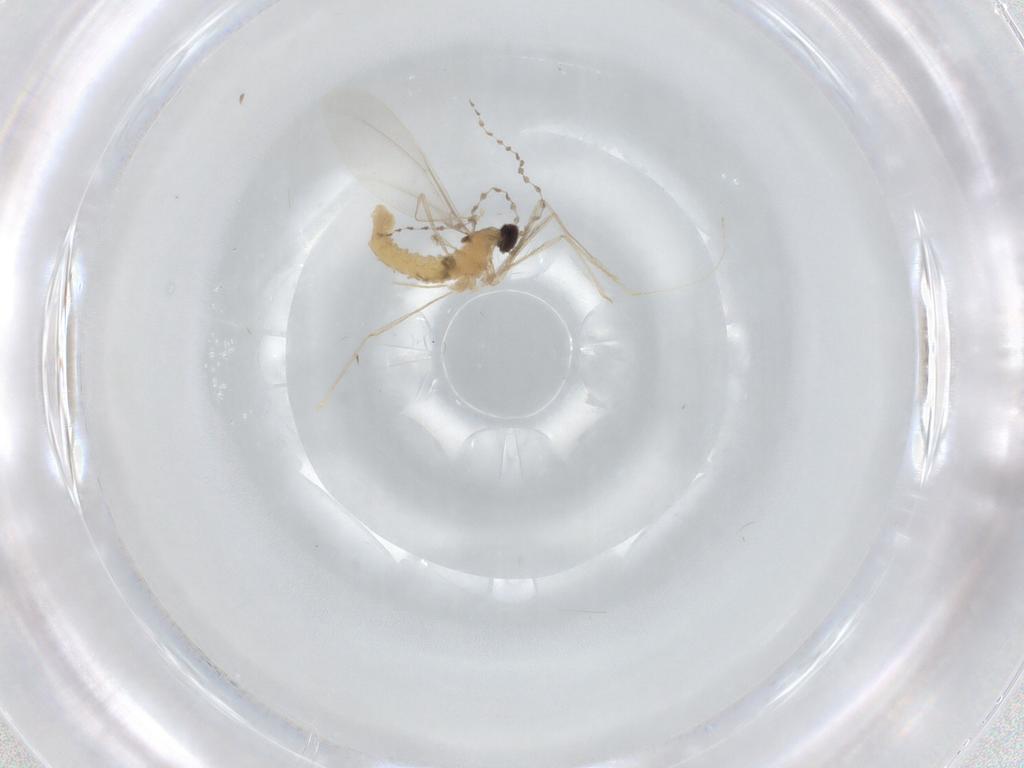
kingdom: Animalia
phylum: Arthropoda
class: Insecta
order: Diptera
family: Cecidomyiidae
